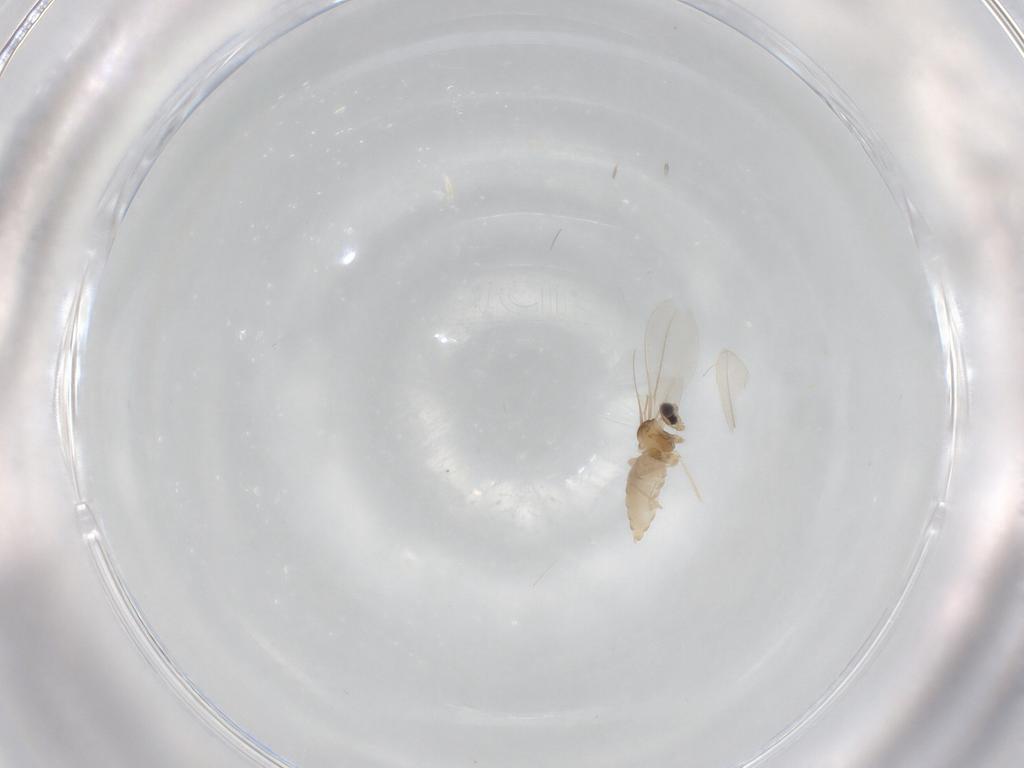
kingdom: Animalia
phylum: Arthropoda
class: Insecta
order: Diptera
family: Cecidomyiidae
